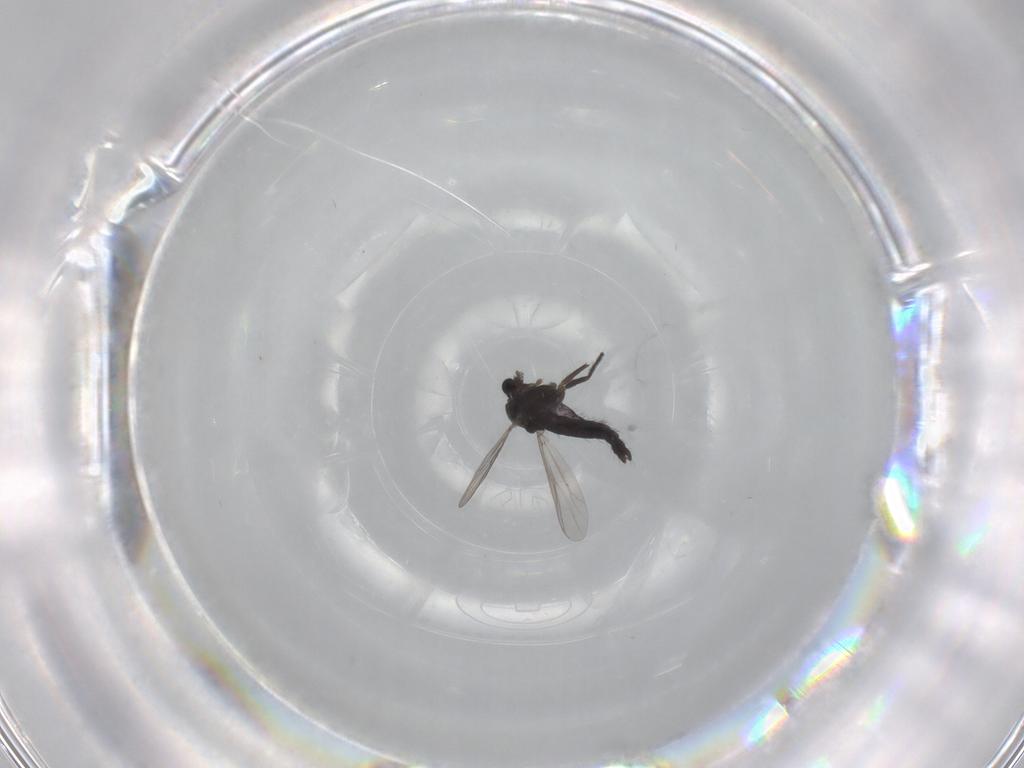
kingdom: Animalia
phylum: Arthropoda
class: Insecta
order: Diptera
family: Chironomidae
